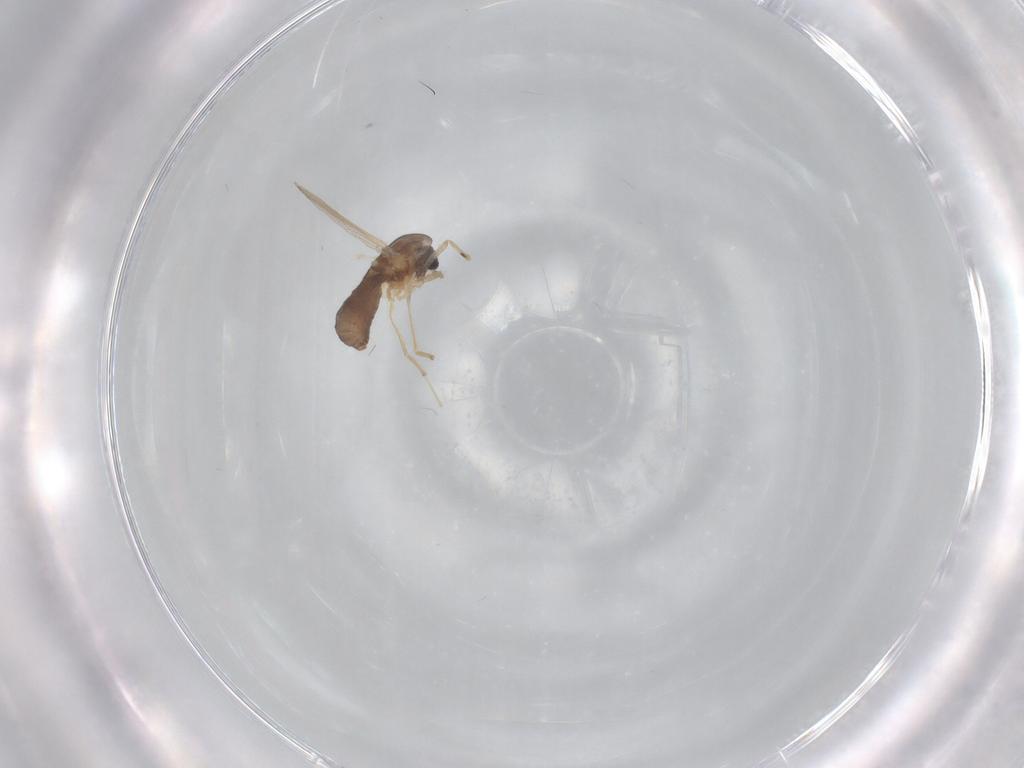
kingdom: Animalia
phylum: Arthropoda
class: Insecta
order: Diptera
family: Chironomidae
